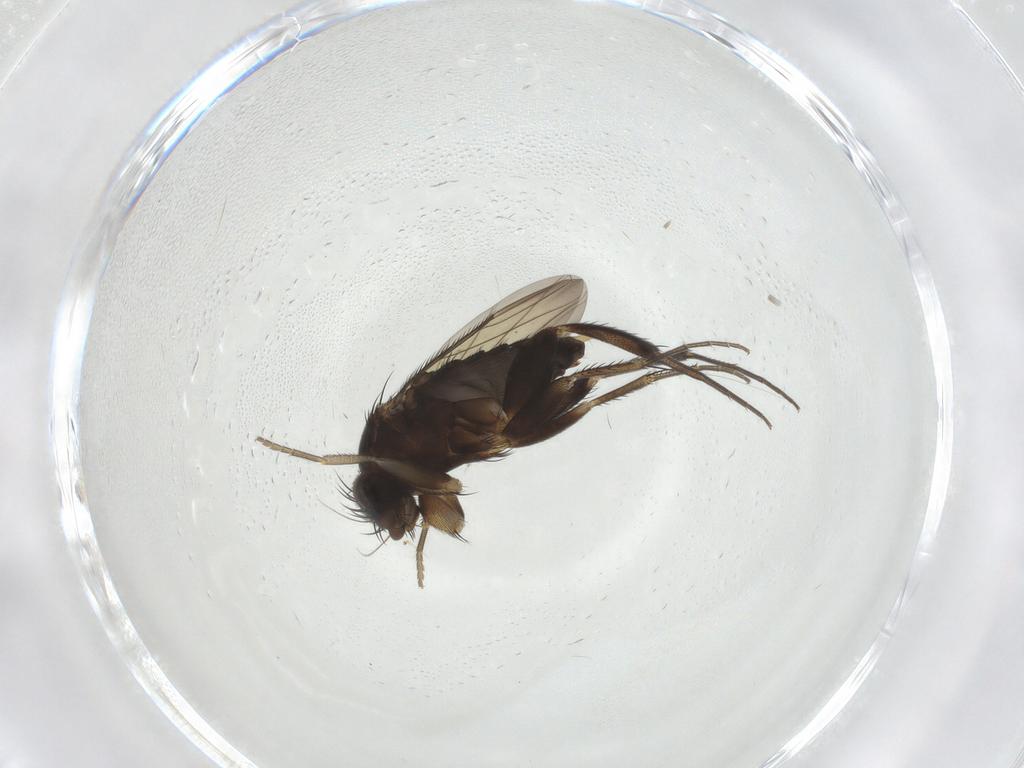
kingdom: Animalia
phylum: Arthropoda
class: Insecta
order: Diptera
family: Phoridae
